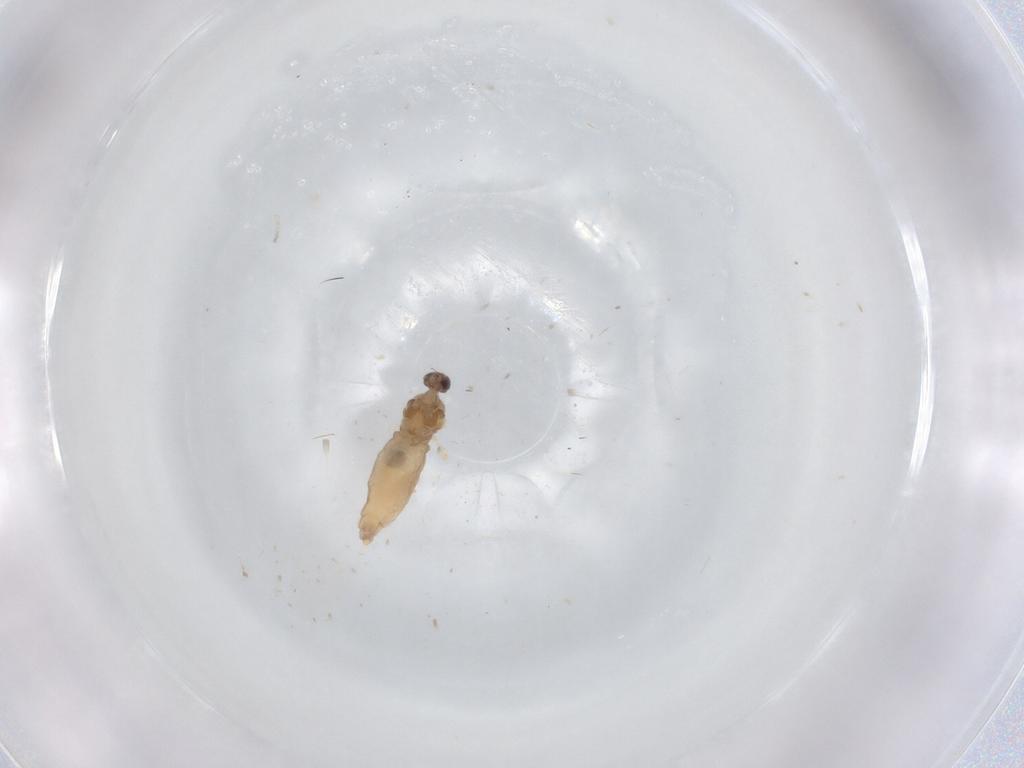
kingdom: Animalia
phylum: Arthropoda
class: Insecta
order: Diptera
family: Cecidomyiidae
